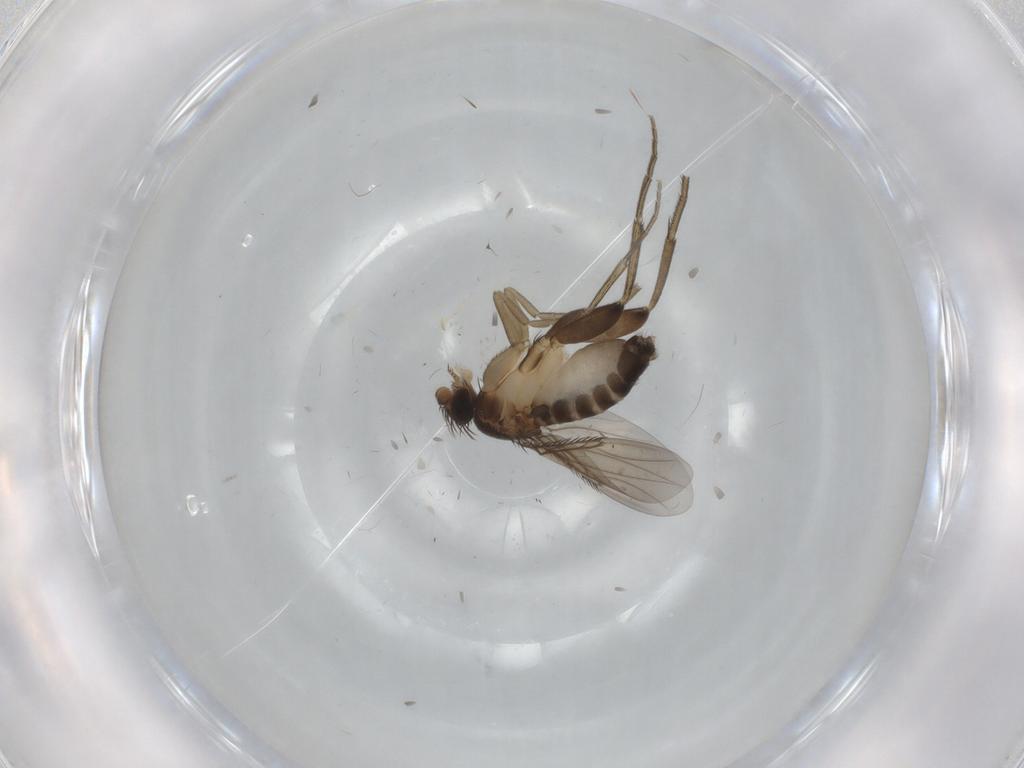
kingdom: Animalia
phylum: Arthropoda
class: Insecta
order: Diptera
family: Phoridae
